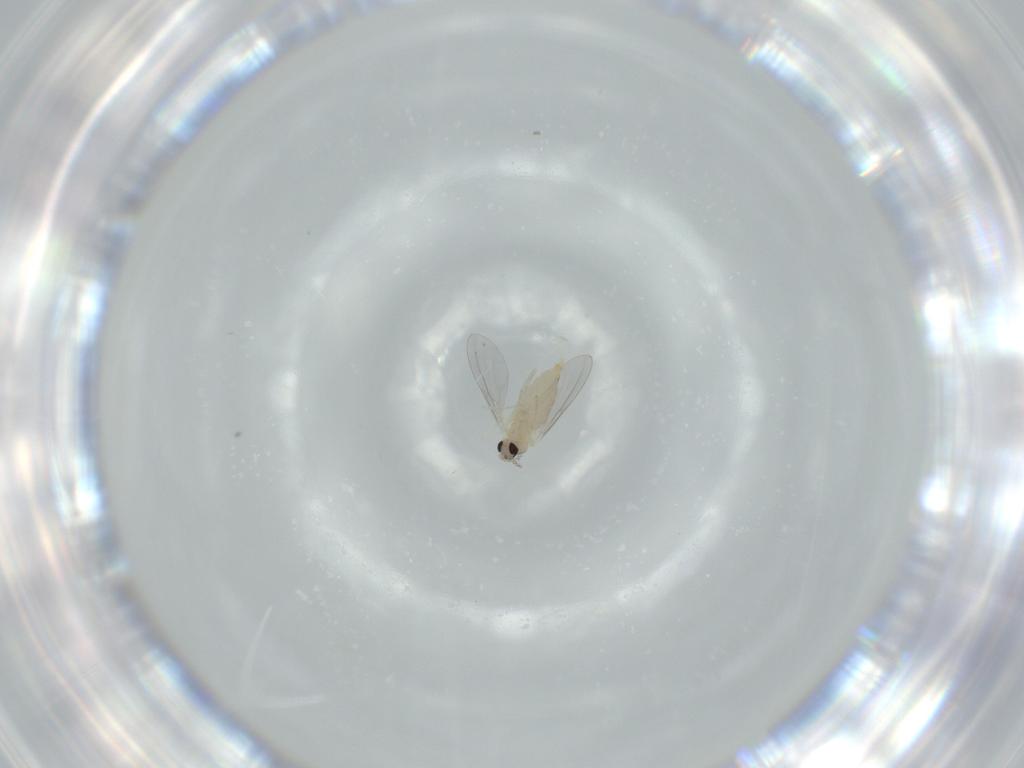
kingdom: Animalia
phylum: Arthropoda
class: Insecta
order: Diptera
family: Cecidomyiidae
